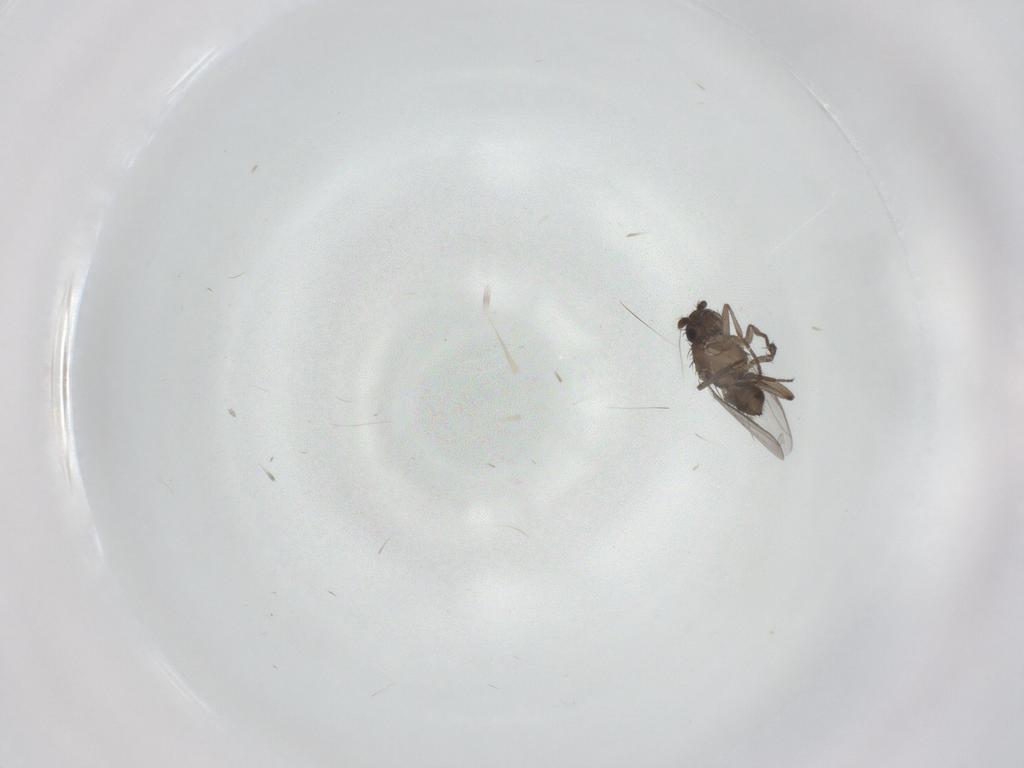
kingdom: Animalia
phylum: Arthropoda
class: Insecta
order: Diptera
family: Sphaeroceridae
